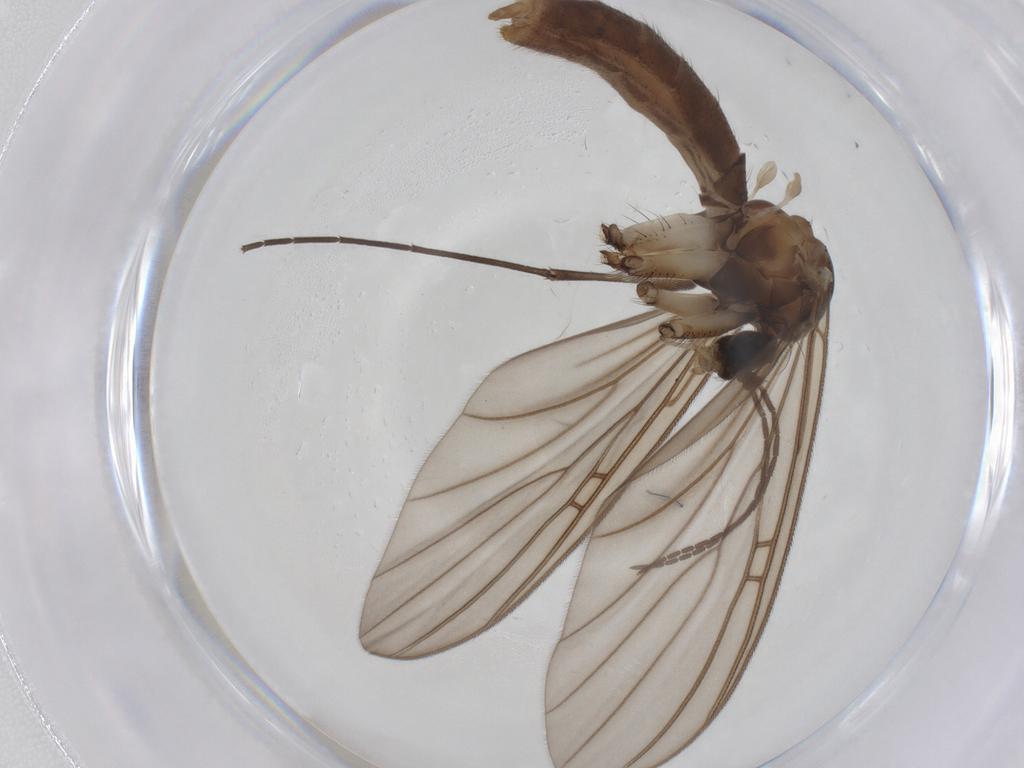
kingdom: Animalia
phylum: Arthropoda
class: Insecta
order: Diptera
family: Mycetophilidae
